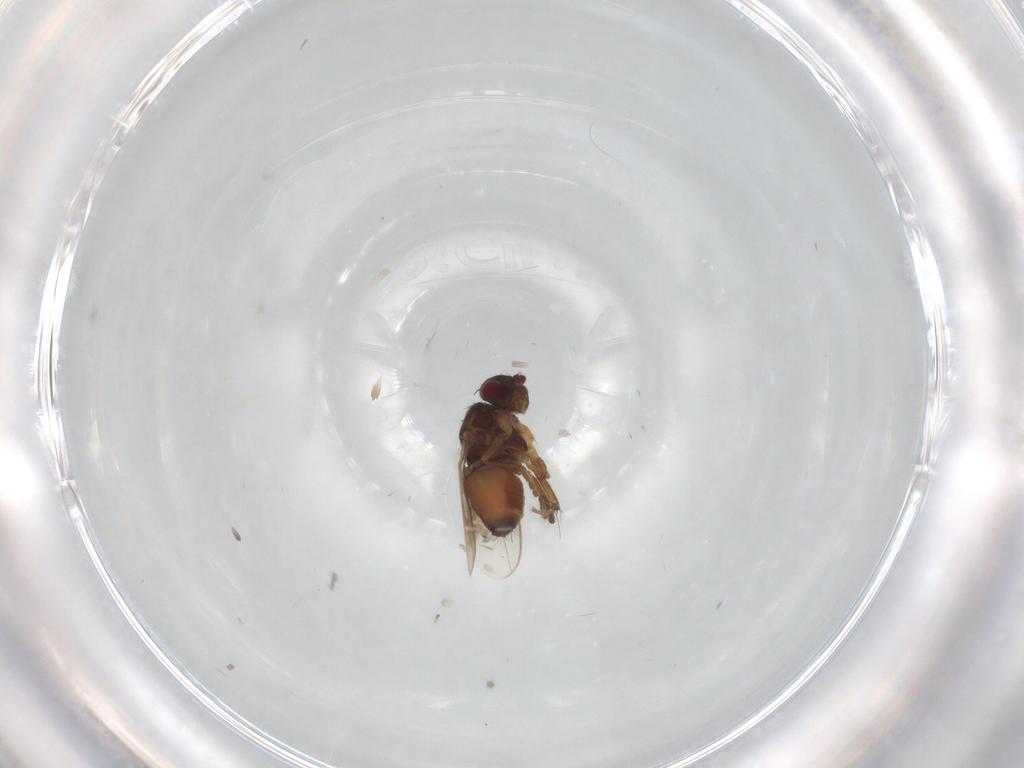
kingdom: Animalia
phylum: Arthropoda
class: Insecta
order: Diptera
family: Sphaeroceridae
